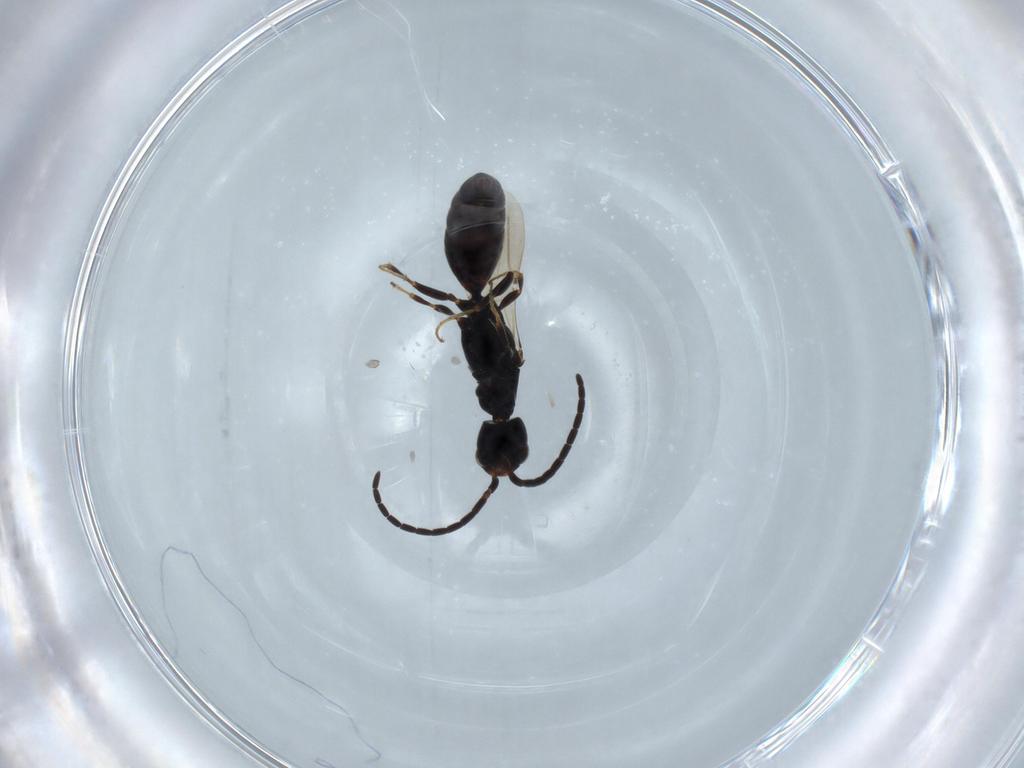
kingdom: Animalia
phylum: Arthropoda
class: Insecta
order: Hymenoptera
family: Bethylidae
